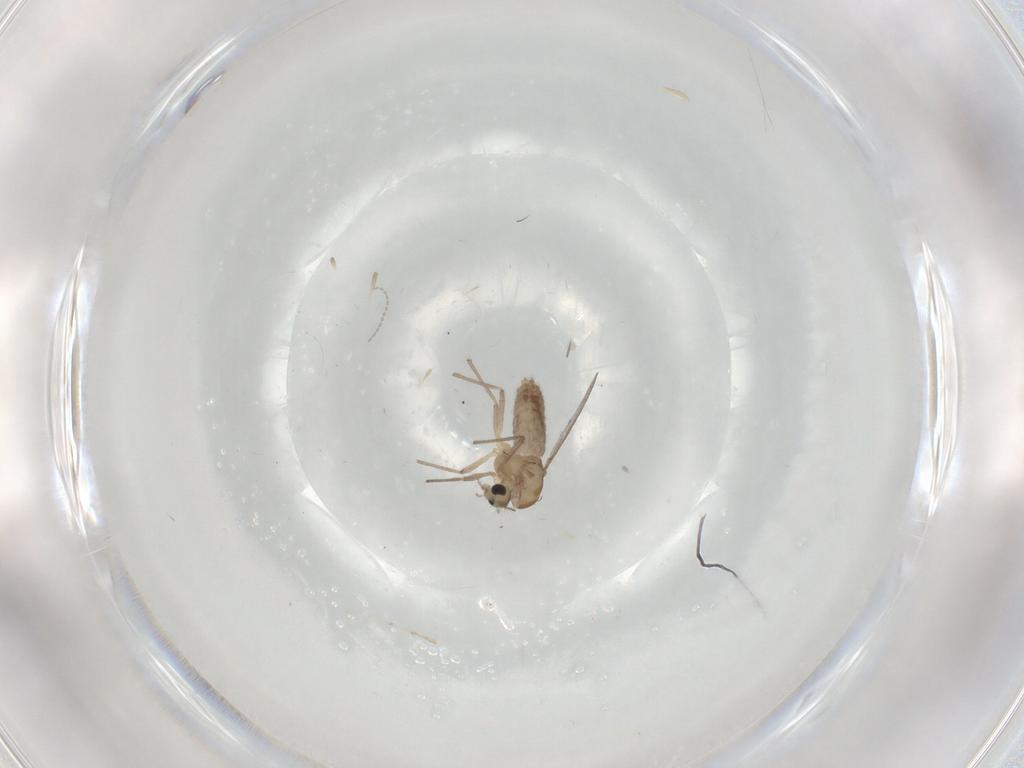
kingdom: Animalia
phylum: Arthropoda
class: Insecta
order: Diptera
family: Chironomidae
